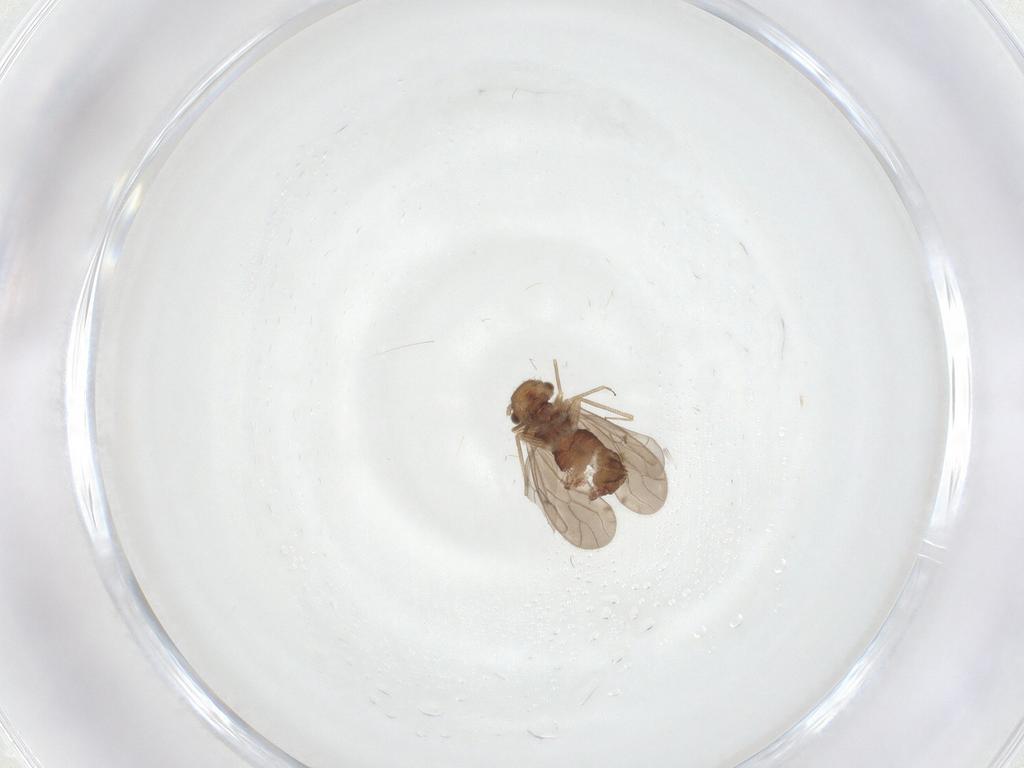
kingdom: Animalia
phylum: Arthropoda
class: Insecta
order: Psocodea
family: Ectopsocidae
